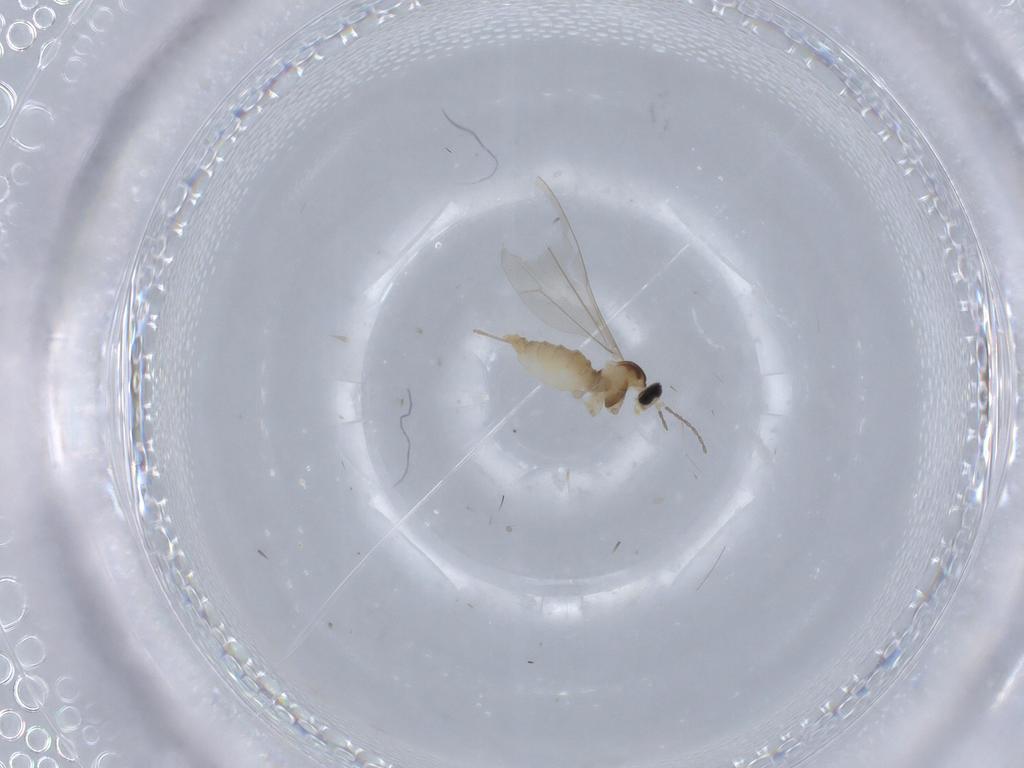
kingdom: Animalia
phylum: Arthropoda
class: Insecta
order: Diptera
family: Cecidomyiidae
